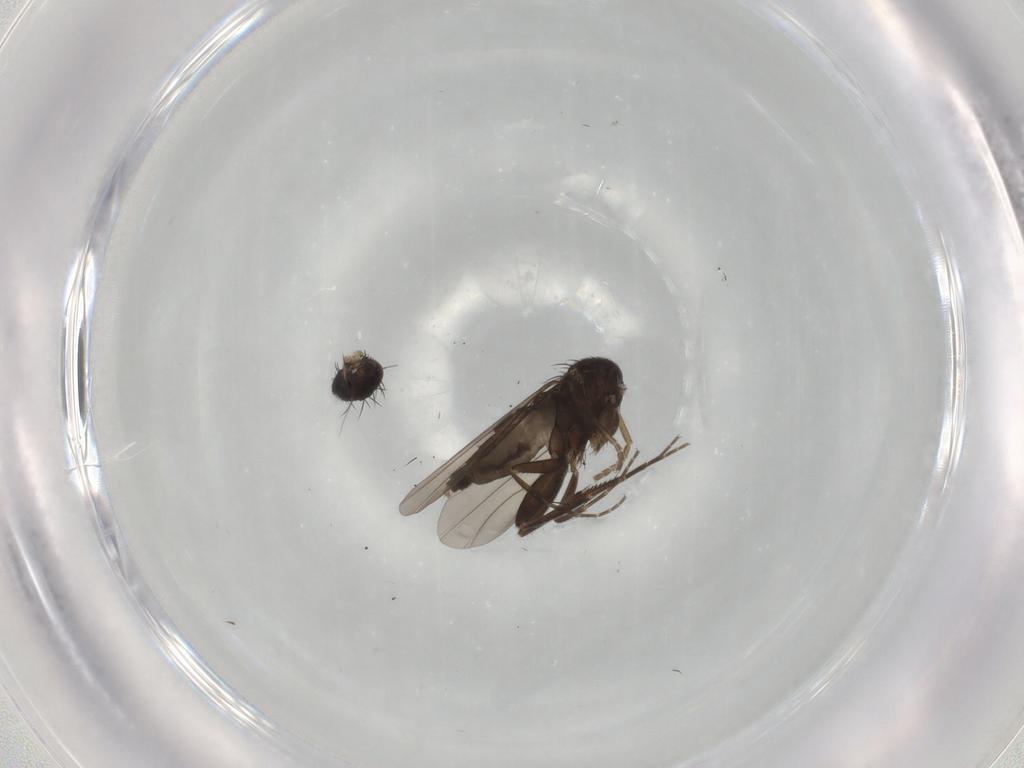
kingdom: Animalia
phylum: Arthropoda
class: Insecta
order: Diptera
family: Phoridae
